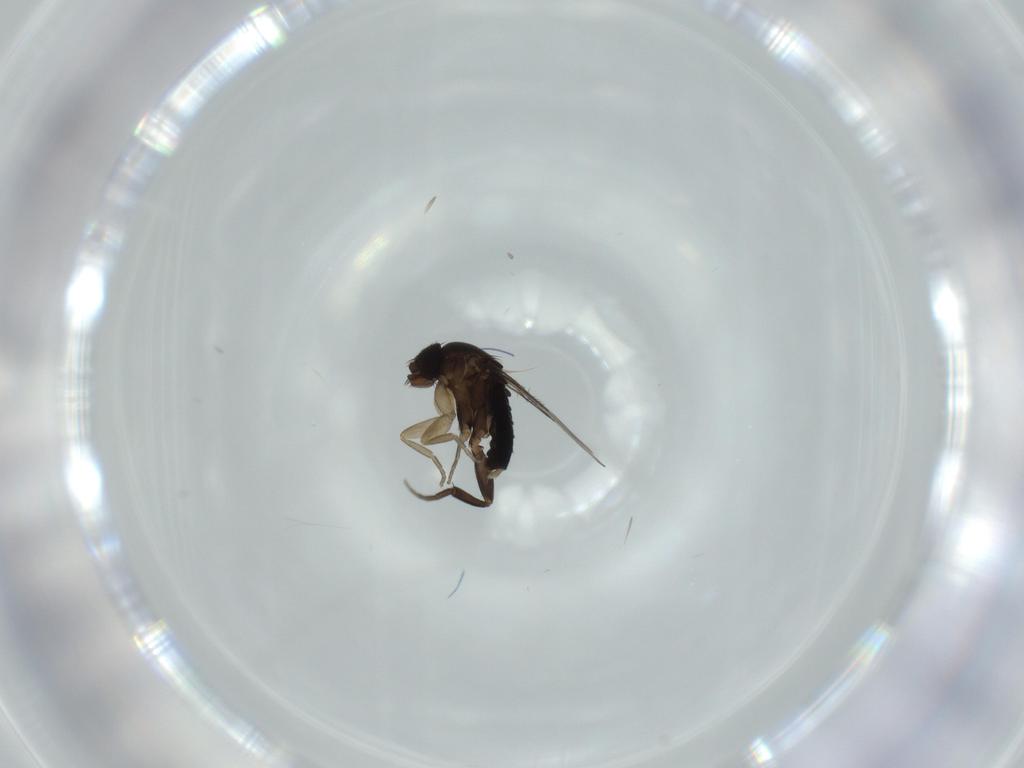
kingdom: Animalia
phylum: Arthropoda
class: Insecta
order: Diptera
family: Phoridae
